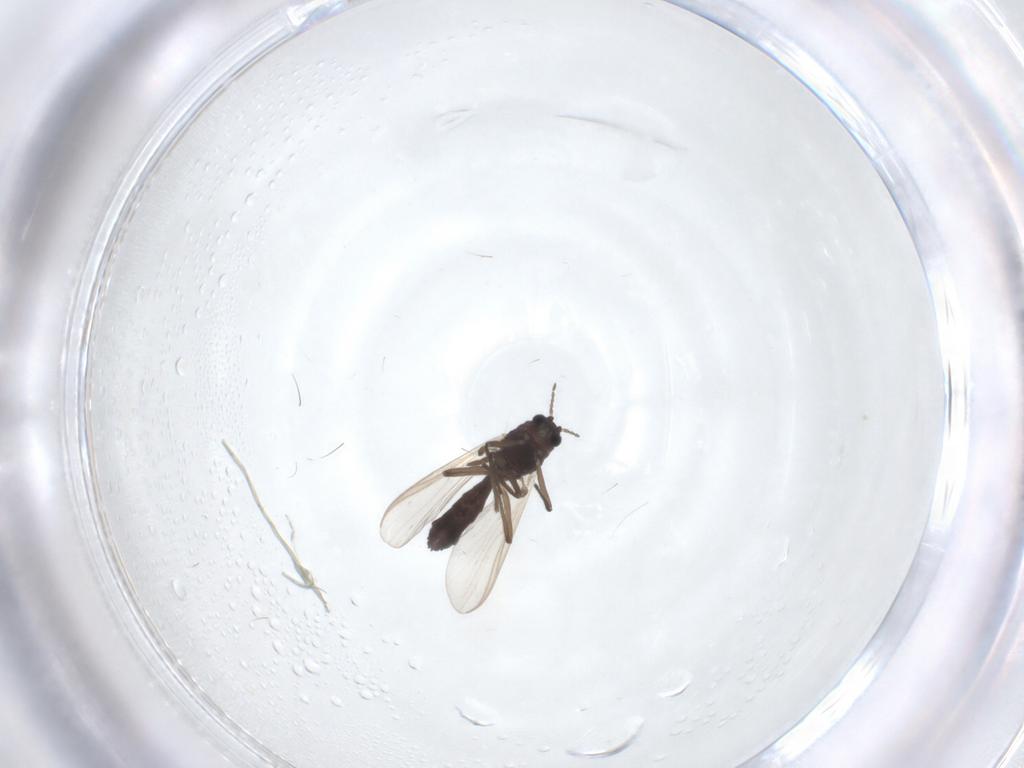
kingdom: Animalia
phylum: Arthropoda
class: Insecta
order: Diptera
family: Mycetophilidae
